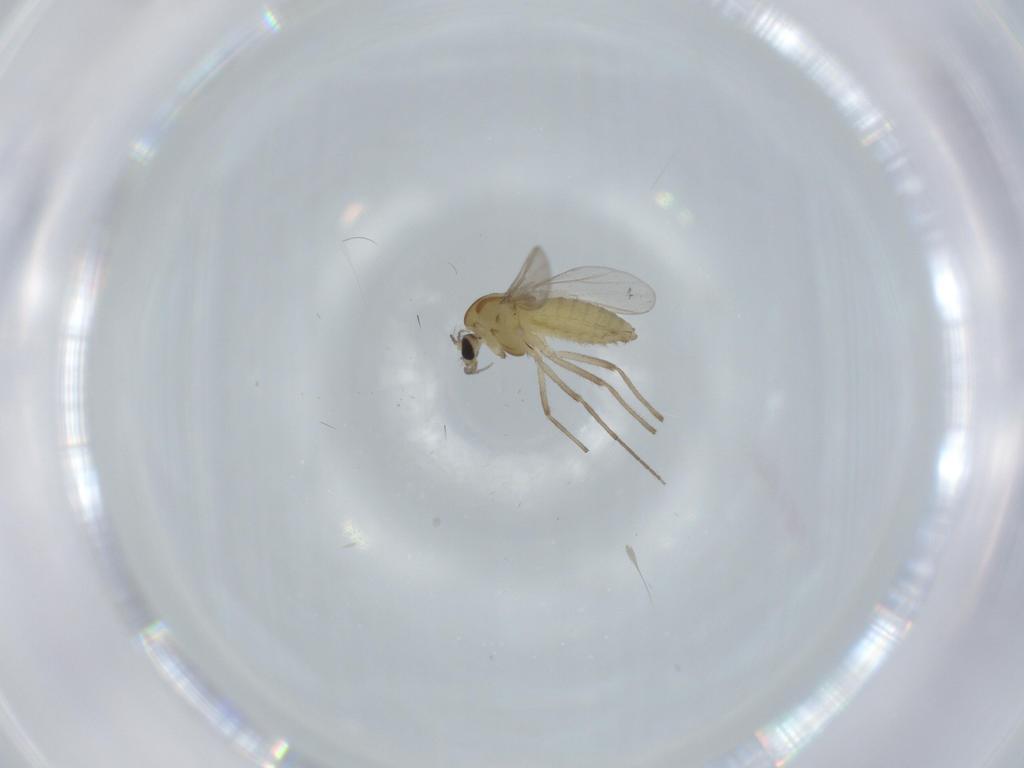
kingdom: Animalia
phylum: Arthropoda
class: Insecta
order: Diptera
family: Chironomidae
